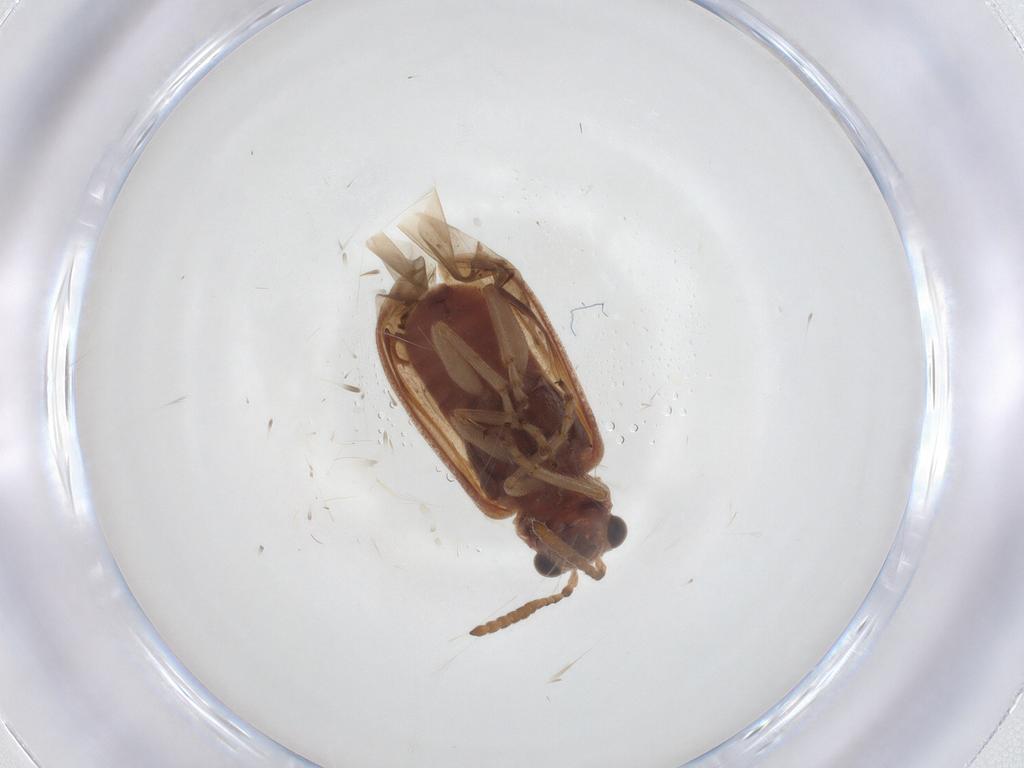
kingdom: Animalia
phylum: Arthropoda
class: Insecta
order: Coleoptera
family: Chrysomelidae
